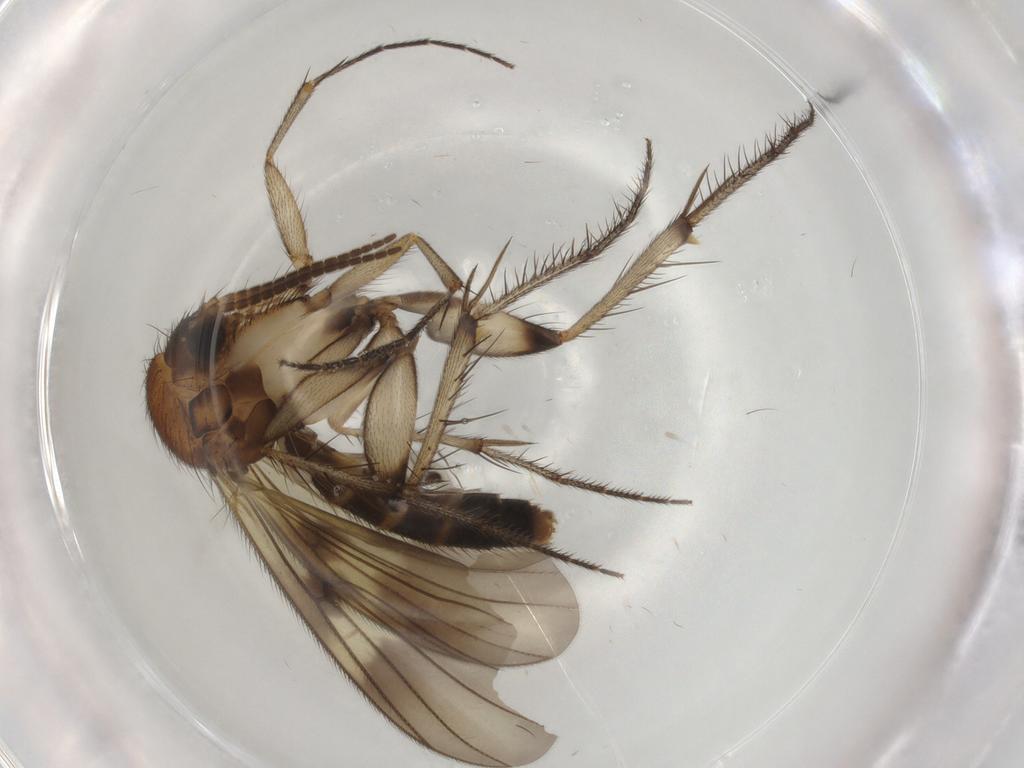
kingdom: Animalia
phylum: Arthropoda
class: Insecta
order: Diptera
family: Mycetophilidae
